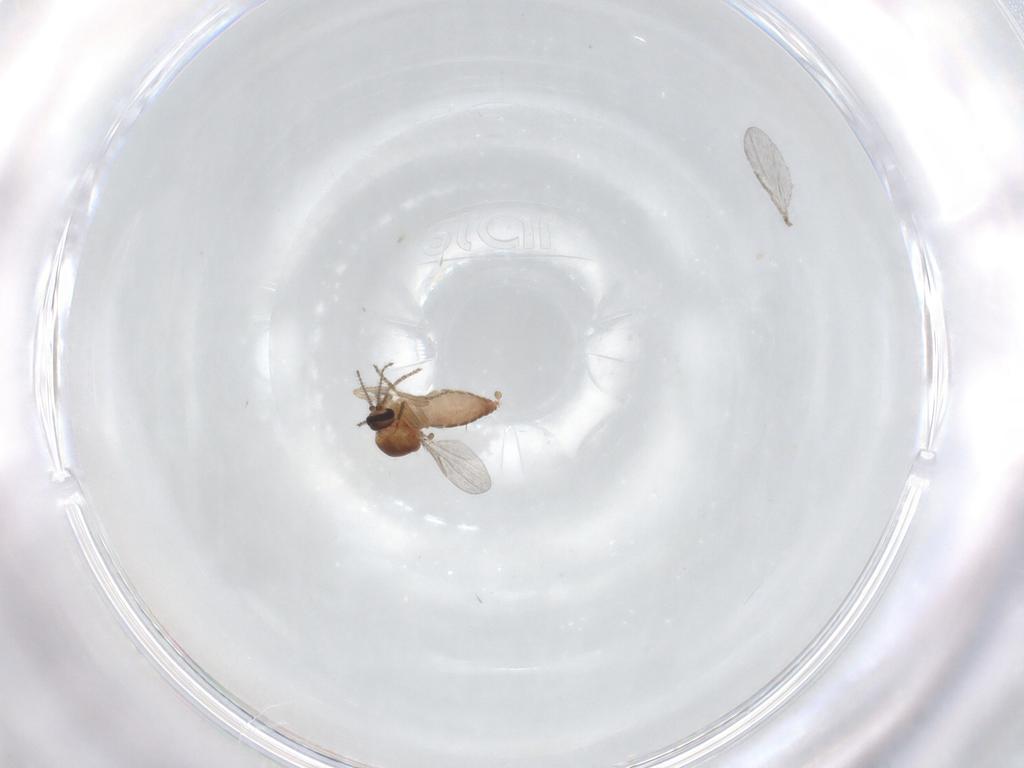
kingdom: Animalia
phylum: Arthropoda
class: Insecta
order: Diptera
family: Ceratopogonidae
